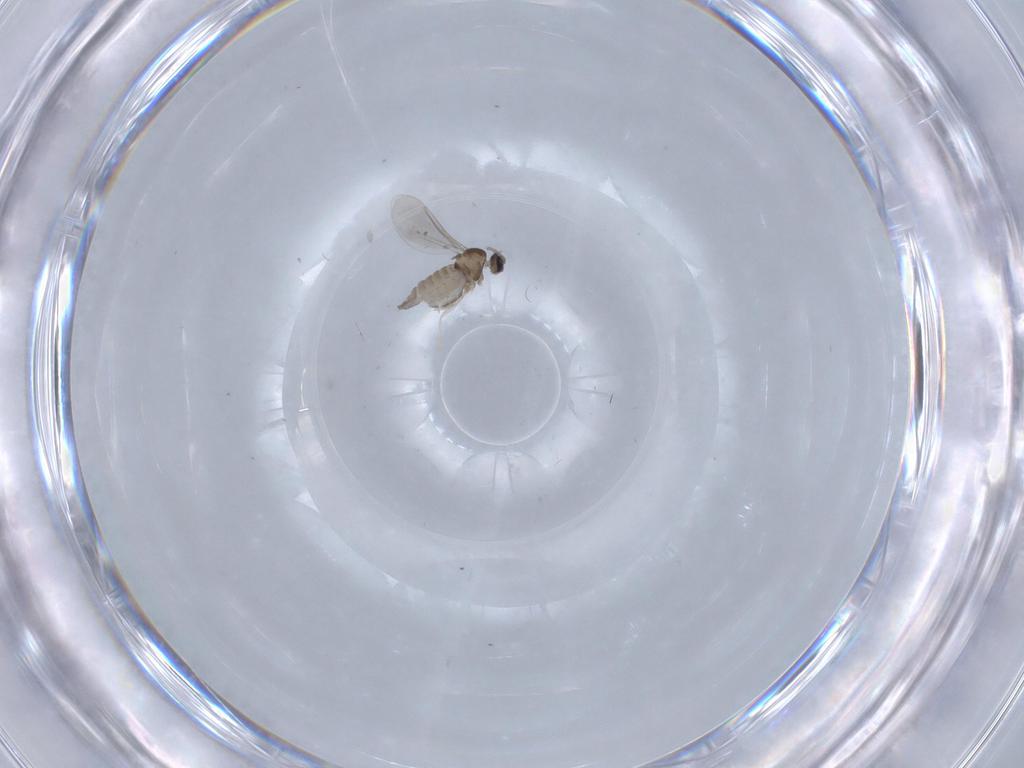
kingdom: Animalia
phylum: Arthropoda
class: Insecta
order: Diptera
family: Cecidomyiidae
